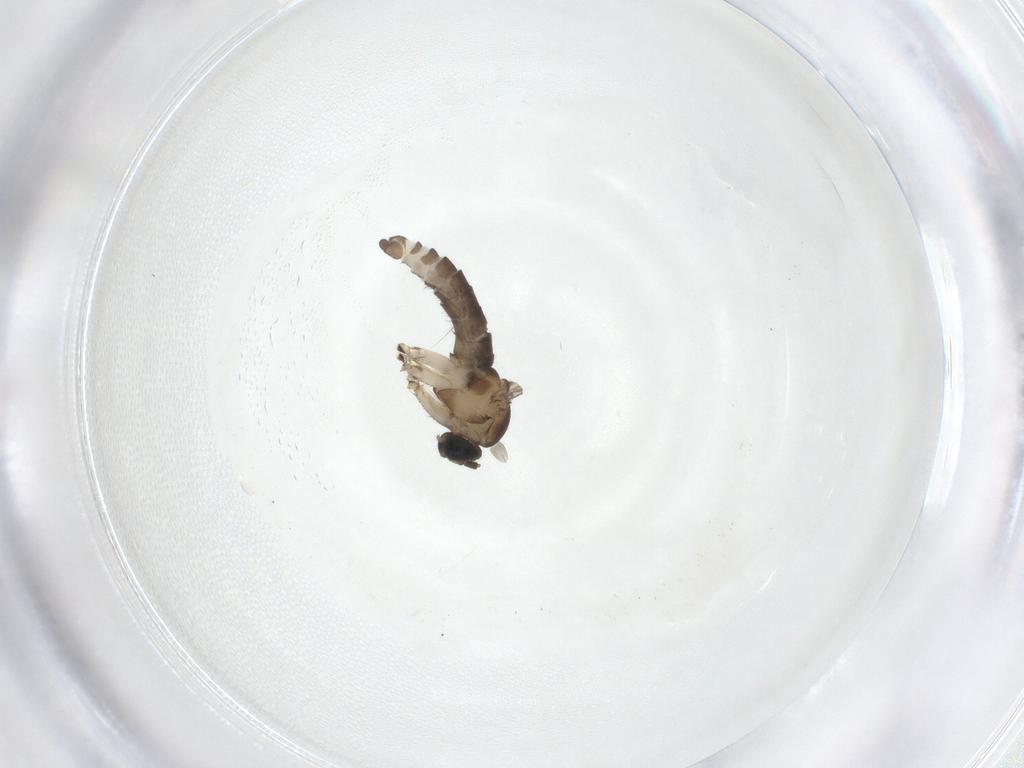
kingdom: Animalia
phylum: Arthropoda
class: Insecta
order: Diptera
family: Sciaridae
